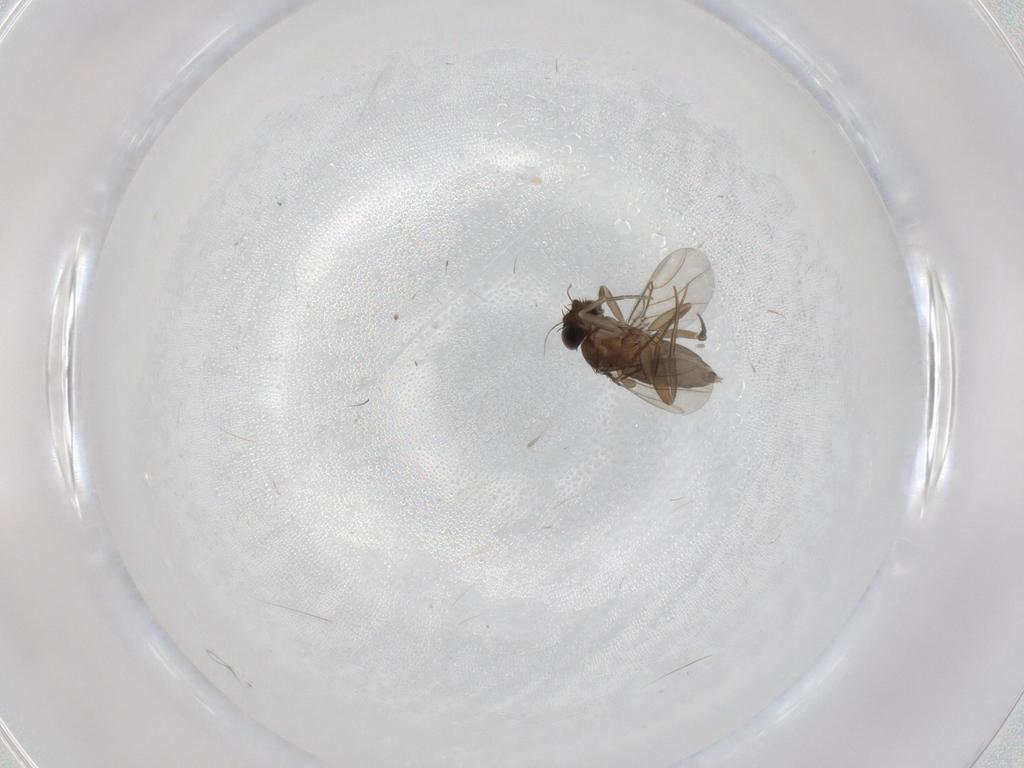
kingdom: Animalia
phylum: Arthropoda
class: Insecta
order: Diptera
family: Phoridae
